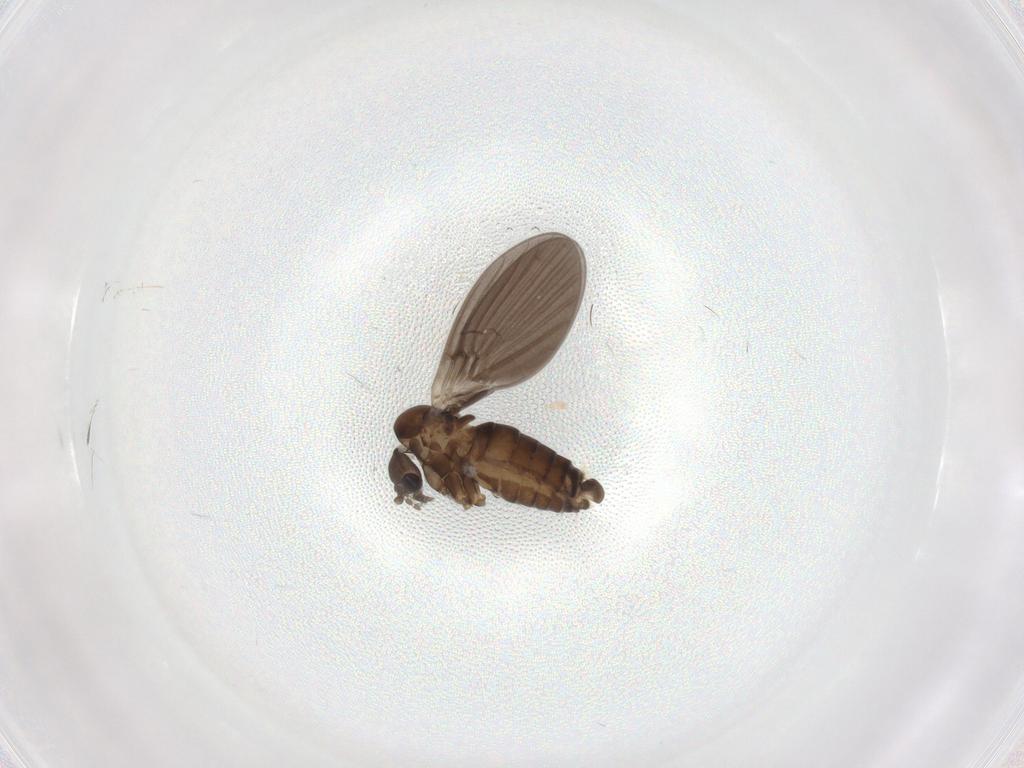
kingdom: Animalia
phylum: Arthropoda
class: Insecta
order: Diptera
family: Psychodidae
